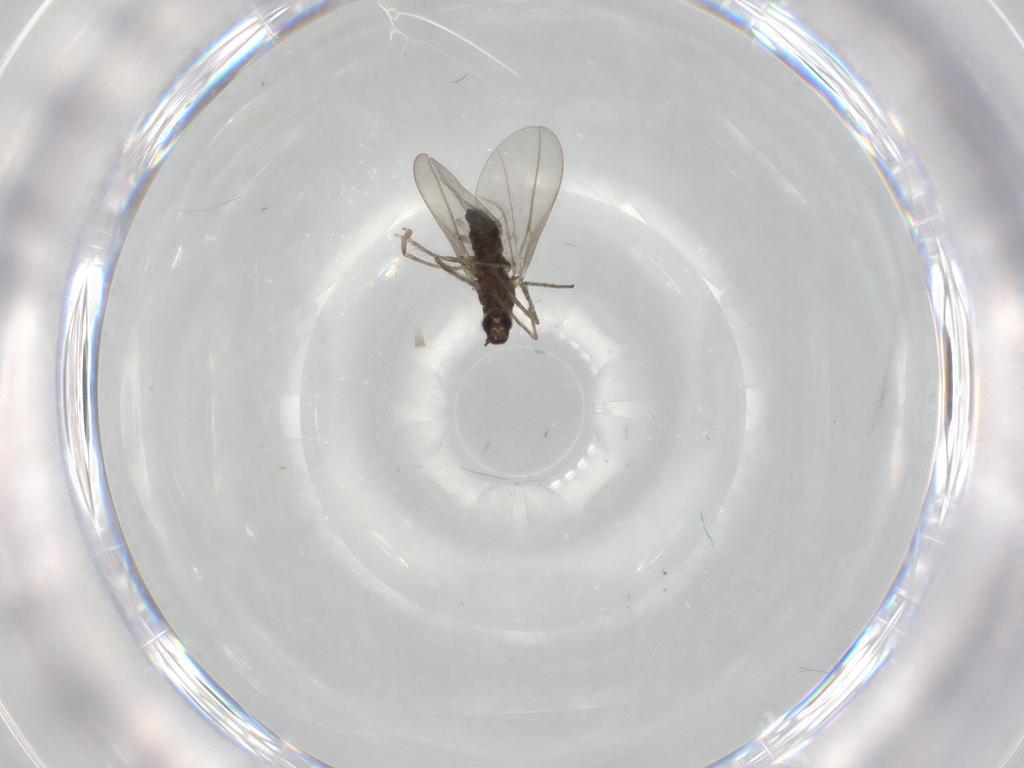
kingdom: Animalia
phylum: Arthropoda
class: Insecta
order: Diptera
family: Cecidomyiidae
